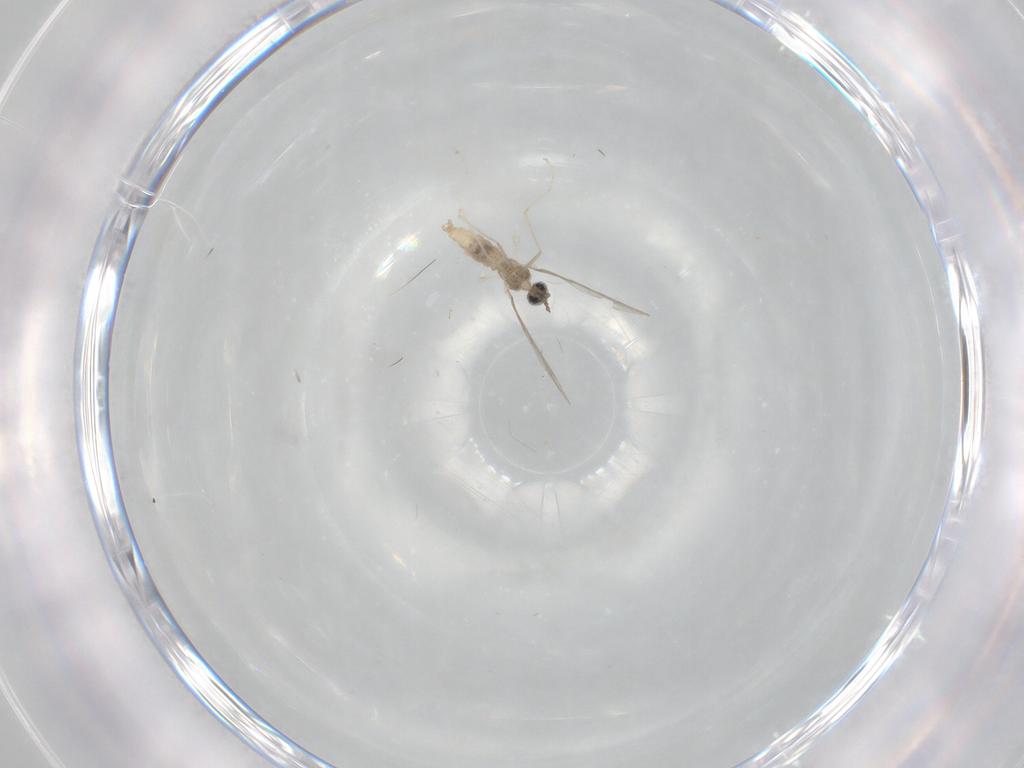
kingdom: Animalia
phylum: Arthropoda
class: Insecta
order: Diptera
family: Cecidomyiidae
